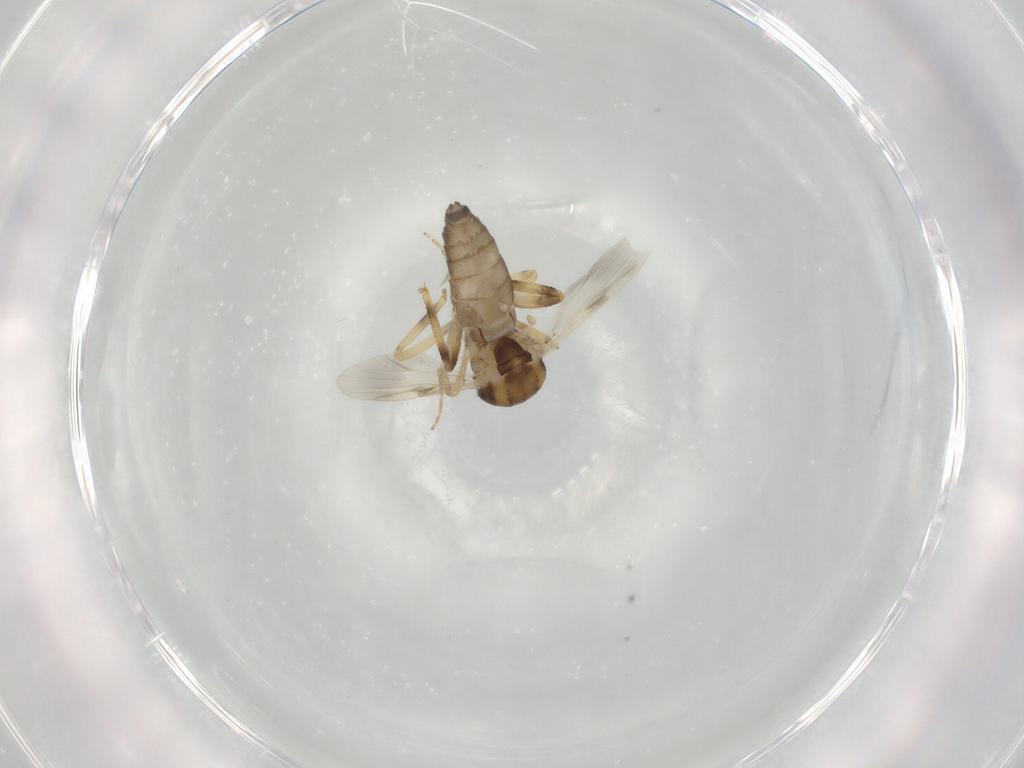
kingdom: Animalia
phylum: Arthropoda
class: Insecta
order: Diptera
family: Ceratopogonidae
